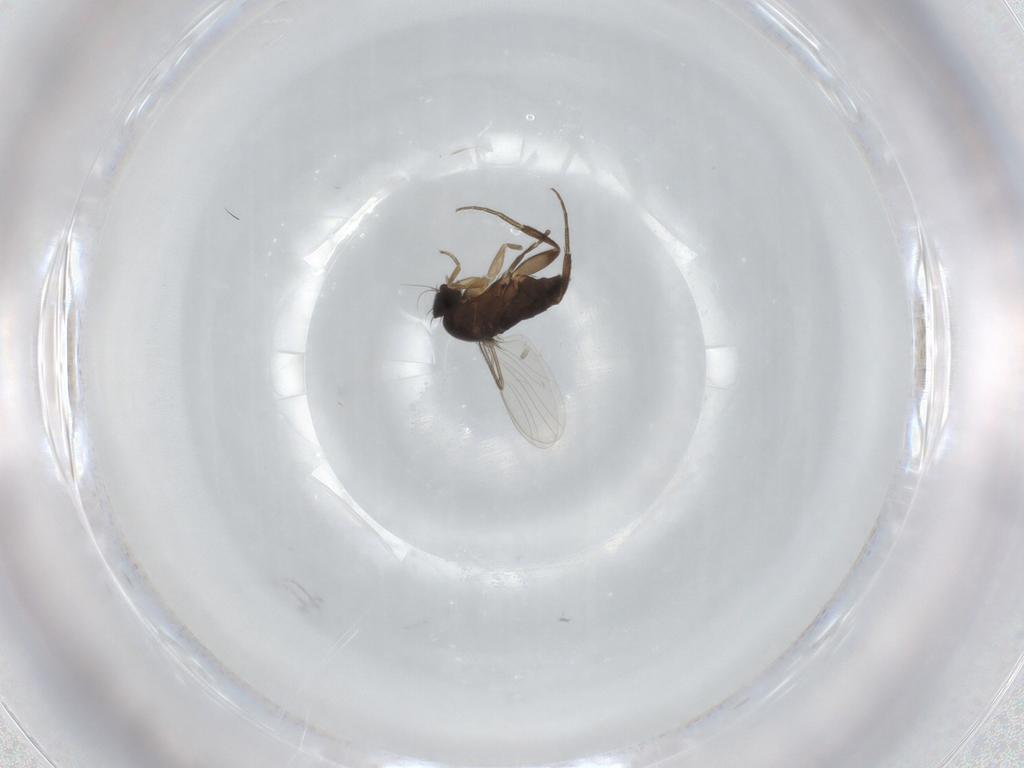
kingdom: Animalia
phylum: Arthropoda
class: Insecta
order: Diptera
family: Phoridae
